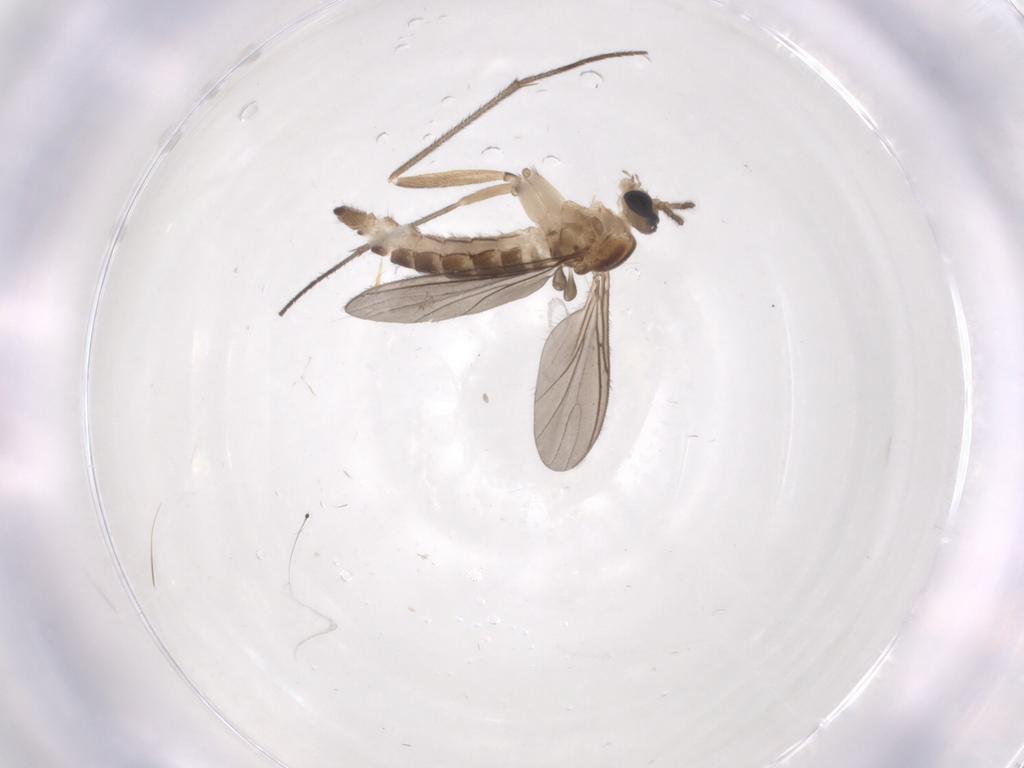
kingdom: Animalia
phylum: Arthropoda
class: Insecta
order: Diptera
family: Sciaridae
